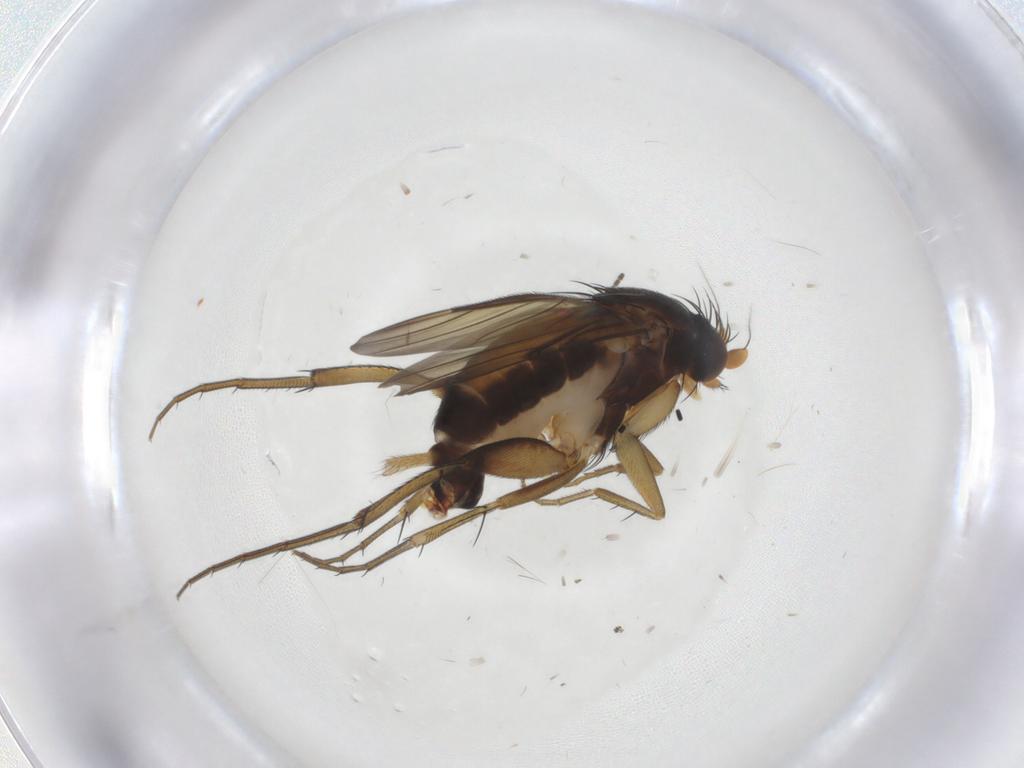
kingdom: Animalia
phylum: Arthropoda
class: Insecta
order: Diptera
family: Phoridae
